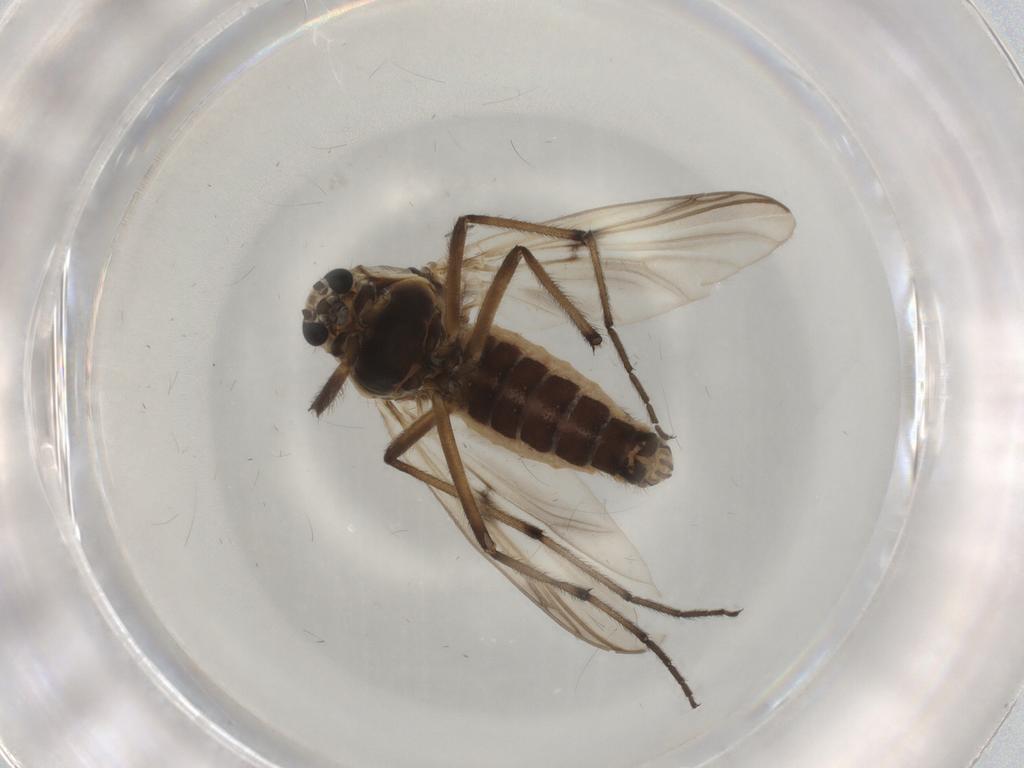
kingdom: Animalia
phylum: Arthropoda
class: Insecta
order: Diptera
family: Chironomidae
